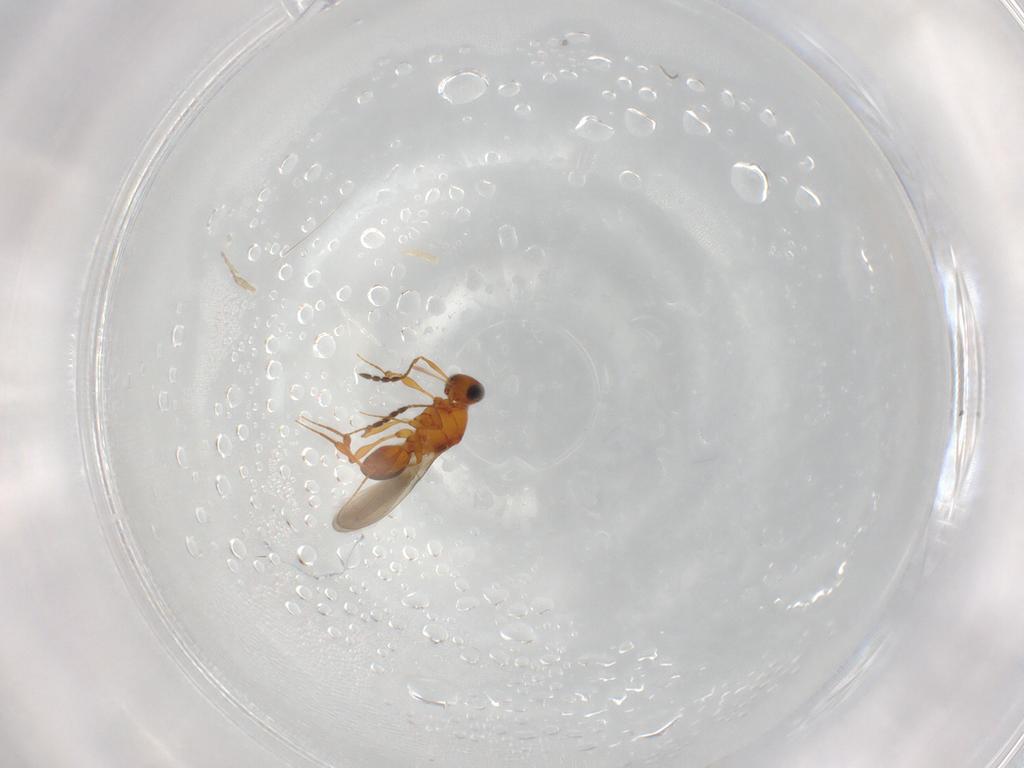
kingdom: Animalia
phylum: Arthropoda
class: Insecta
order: Hymenoptera
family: Platygastridae
